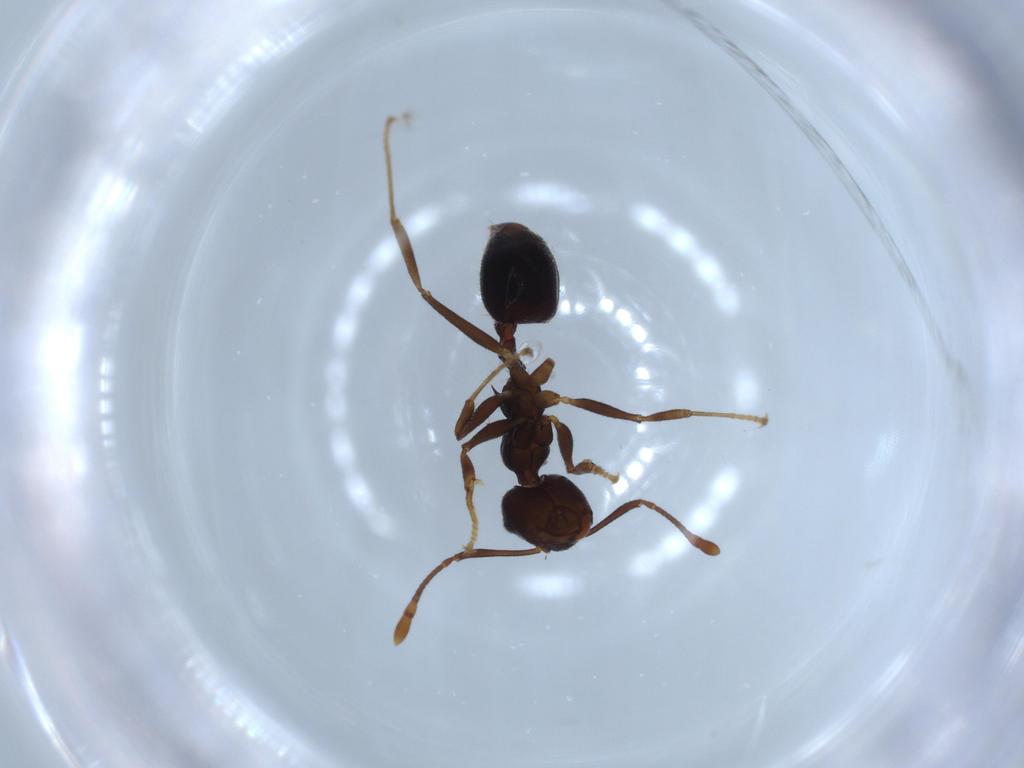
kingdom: Animalia
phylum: Arthropoda
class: Insecta
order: Hymenoptera
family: Formicidae
